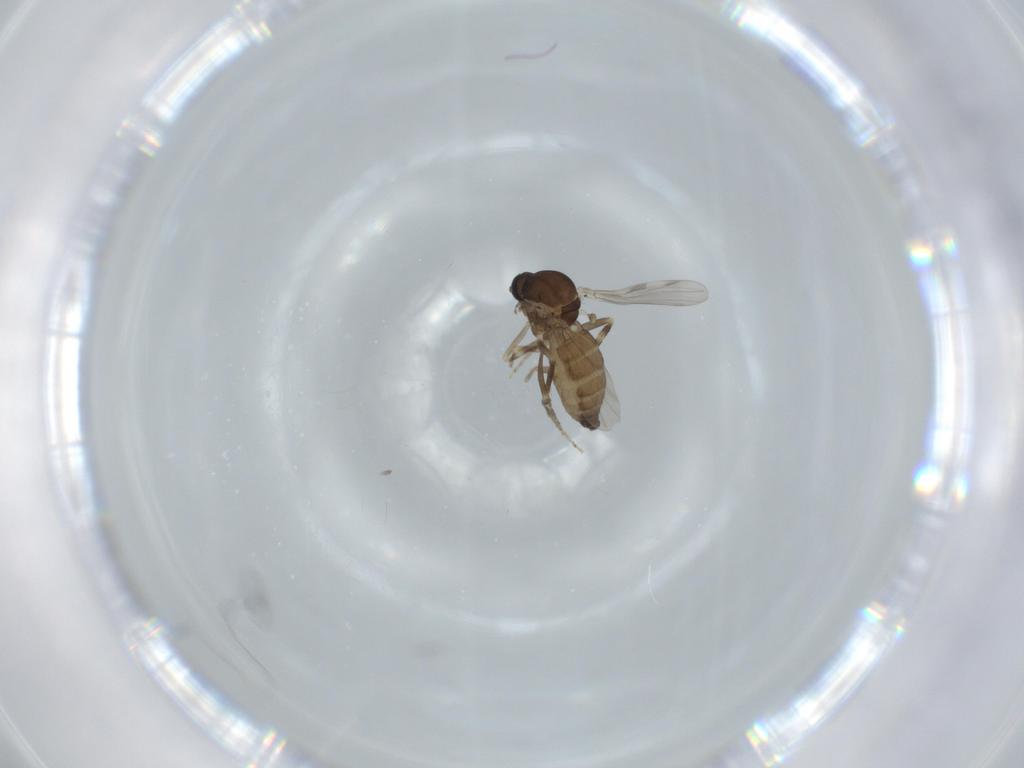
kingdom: Animalia
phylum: Arthropoda
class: Insecta
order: Diptera
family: Ceratopogonidae
